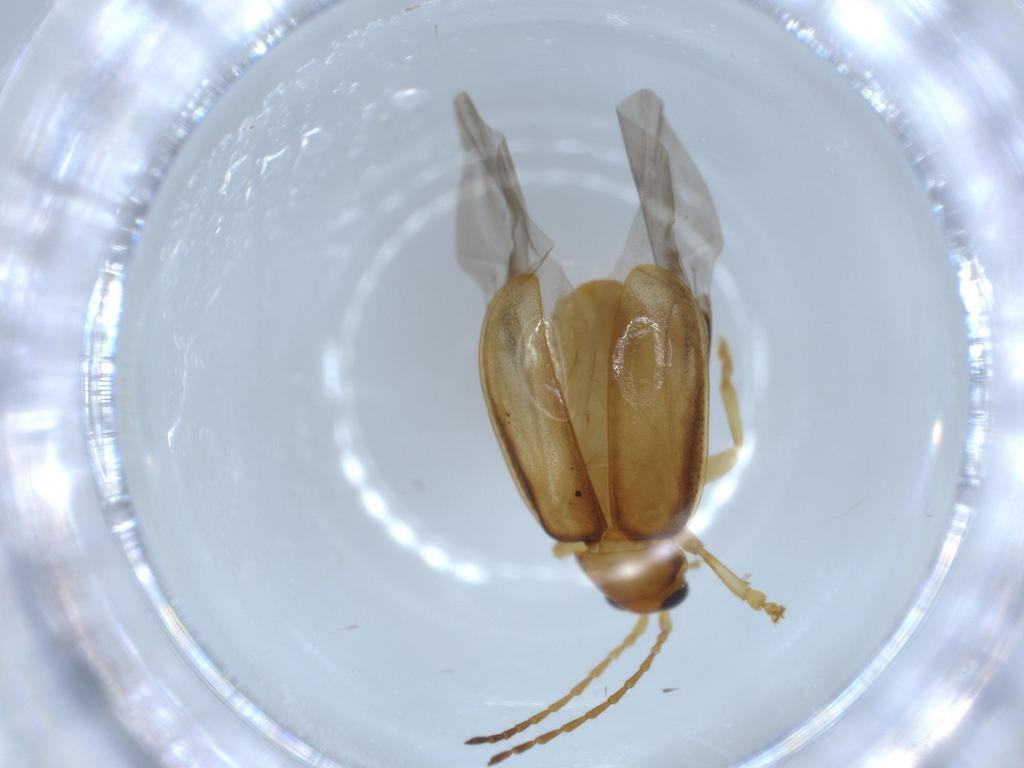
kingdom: Animalia
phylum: Arthropoda
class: Insecta
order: Coleoptera
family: Chrysomelidae
